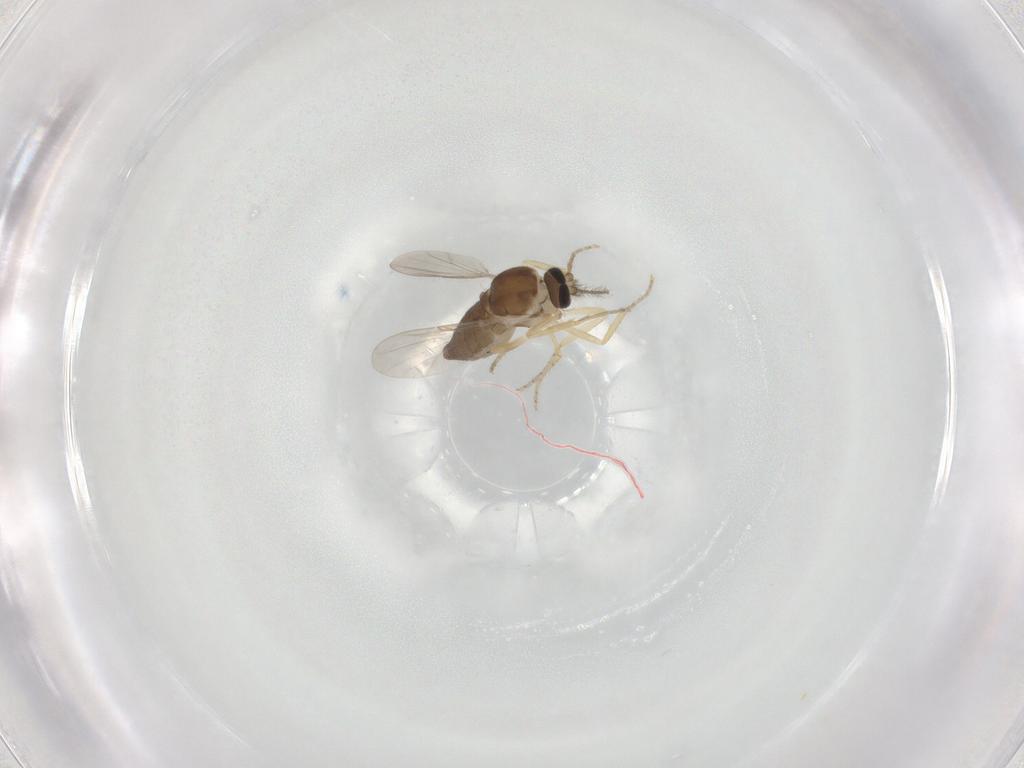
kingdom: Animalia
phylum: Arthropoda
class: Insecta
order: Diptera
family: Ceratopogonidae
